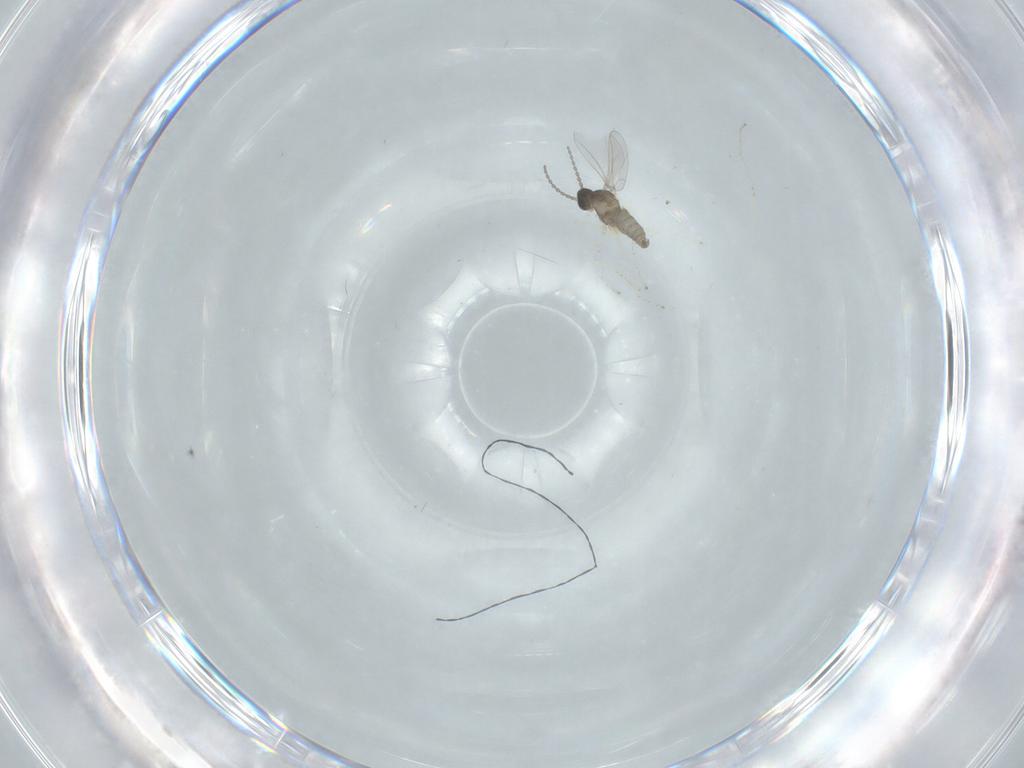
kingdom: Animalia
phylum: Arthropoda
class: Insecta
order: Diptera
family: Cecidomyiidae
